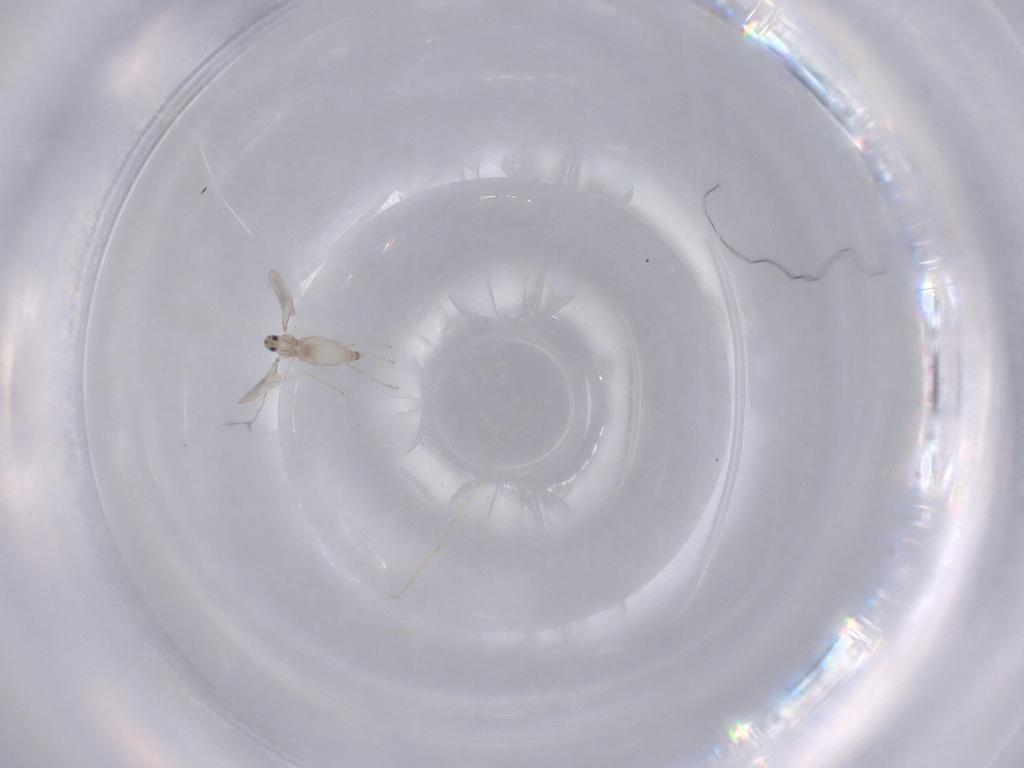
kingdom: Animalia
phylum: Arthropoda
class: Insecta
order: Diptera
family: Cecidomyiidae
